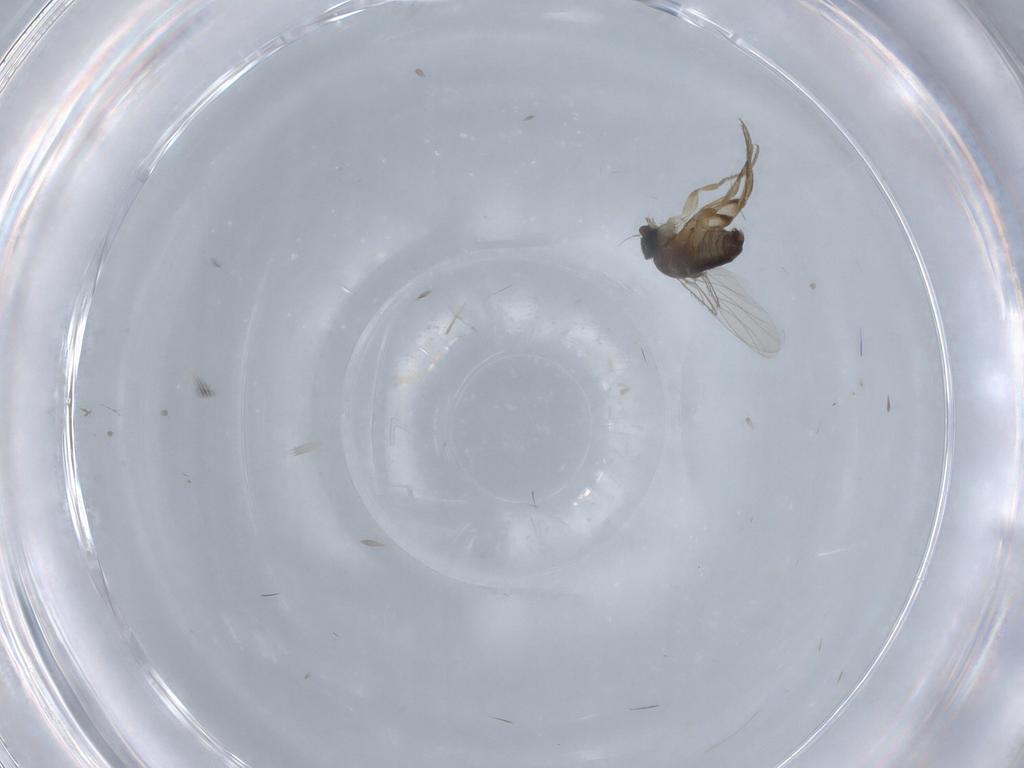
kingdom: Animalia
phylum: Arthropoda
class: Insecta
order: Diptera
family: Phoridae
